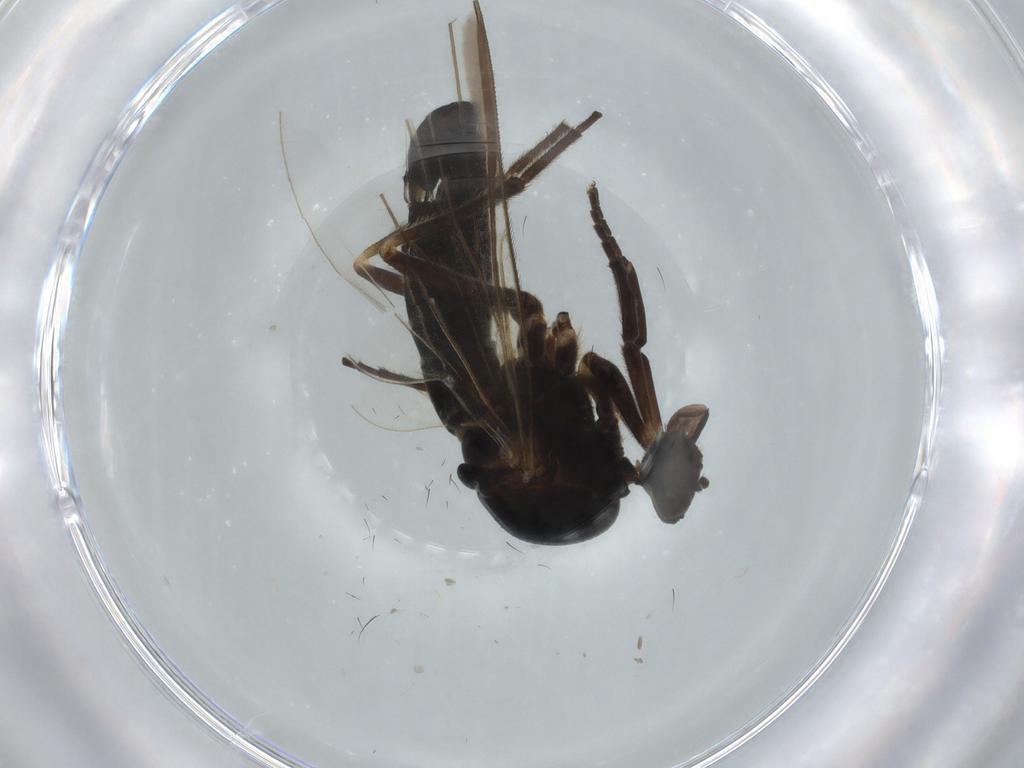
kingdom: Animalia
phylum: Arthropoda
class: Insecta
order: Diptera
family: Empididae
